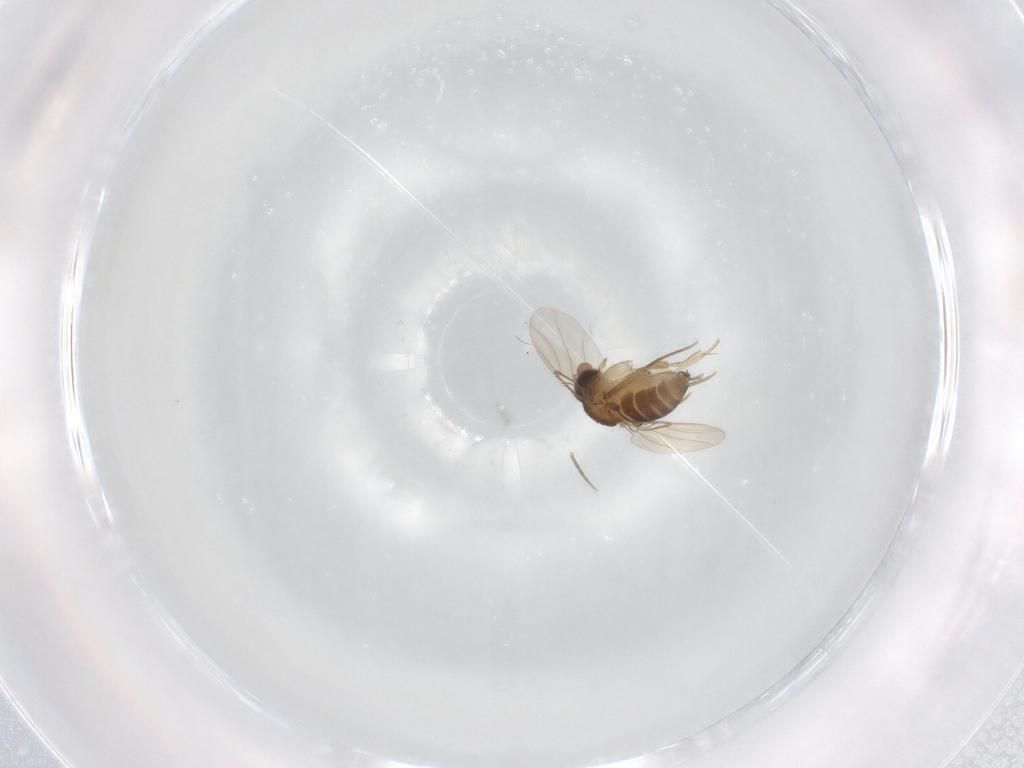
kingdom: Animalia
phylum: Arthropoda
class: Insecta
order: Diptera
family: Phoridae
